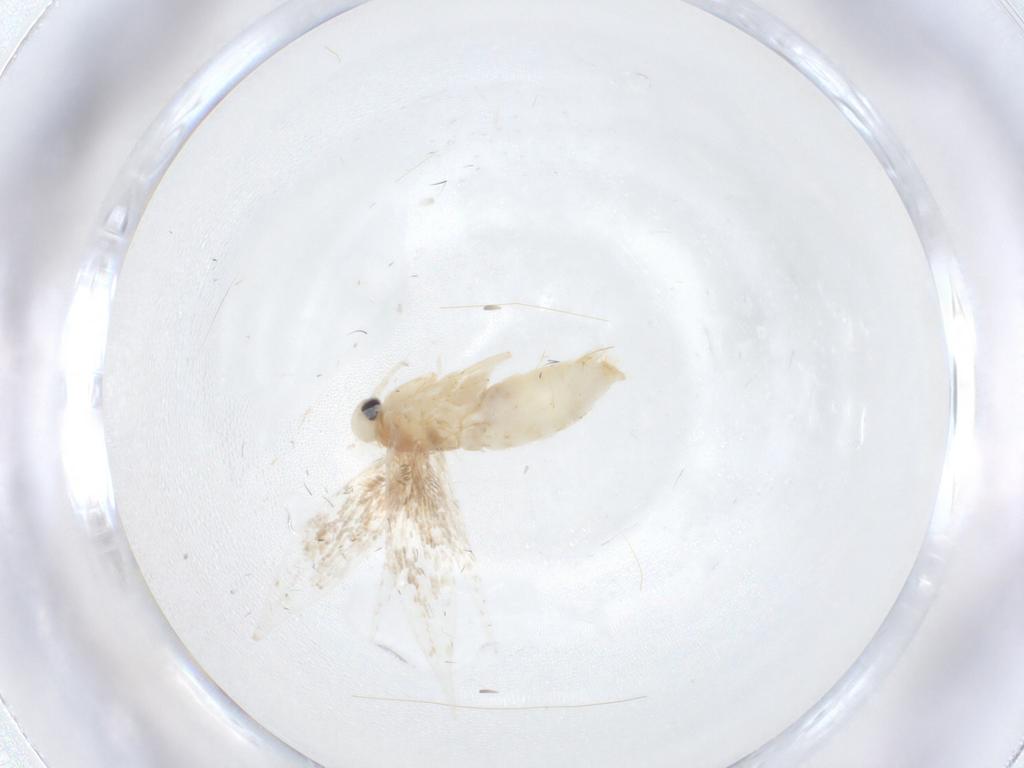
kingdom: Animalia
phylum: Arthropoda
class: Insecta
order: Lepidoptera
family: Gracillariidae
